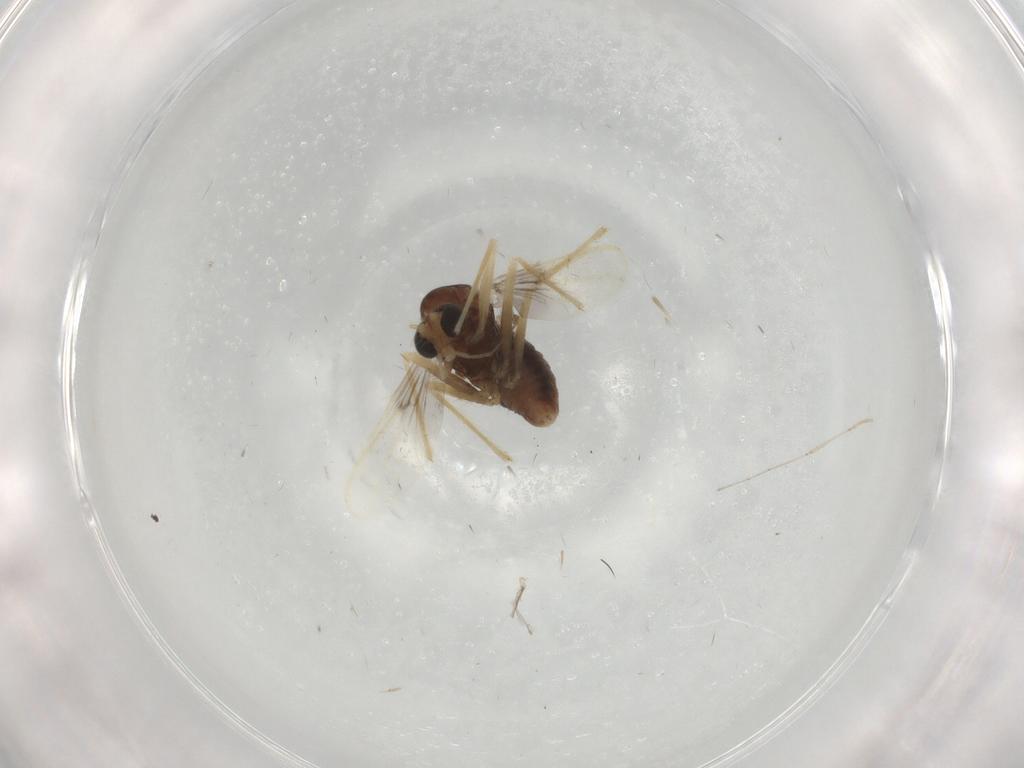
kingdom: Animalia
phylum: Arthropoda
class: Insecta
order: Diptera
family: Chironomidae
